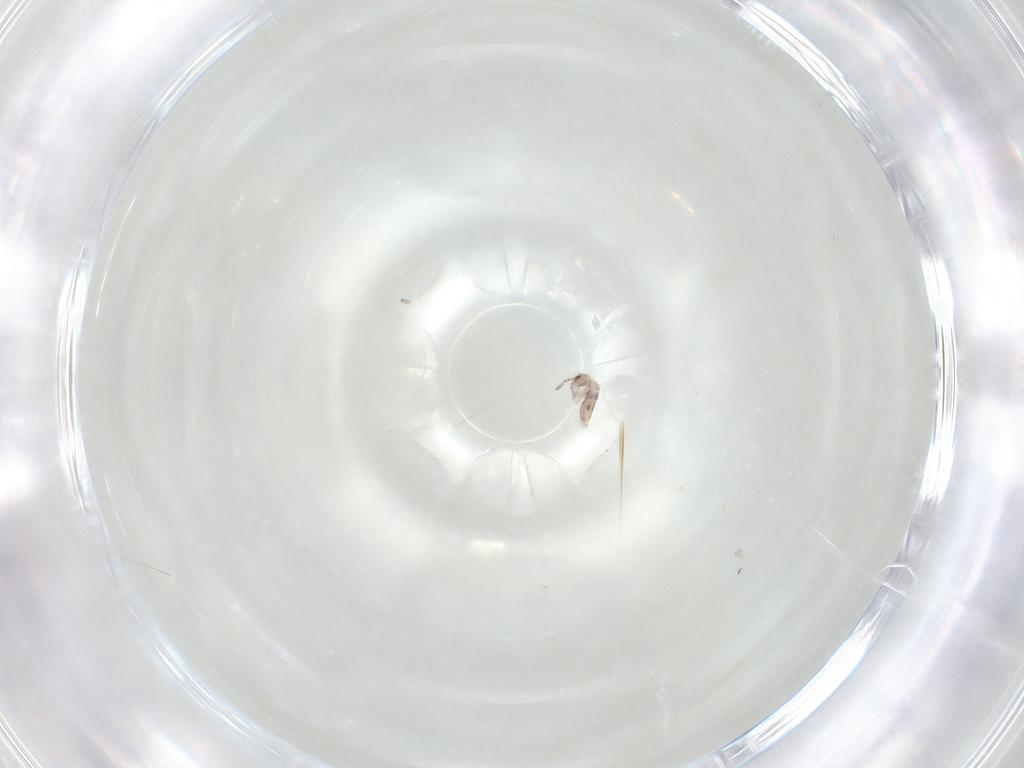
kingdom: Animalia
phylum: Arthropoda
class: Collembola
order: Entomobryomorpha
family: Entomobryidae
